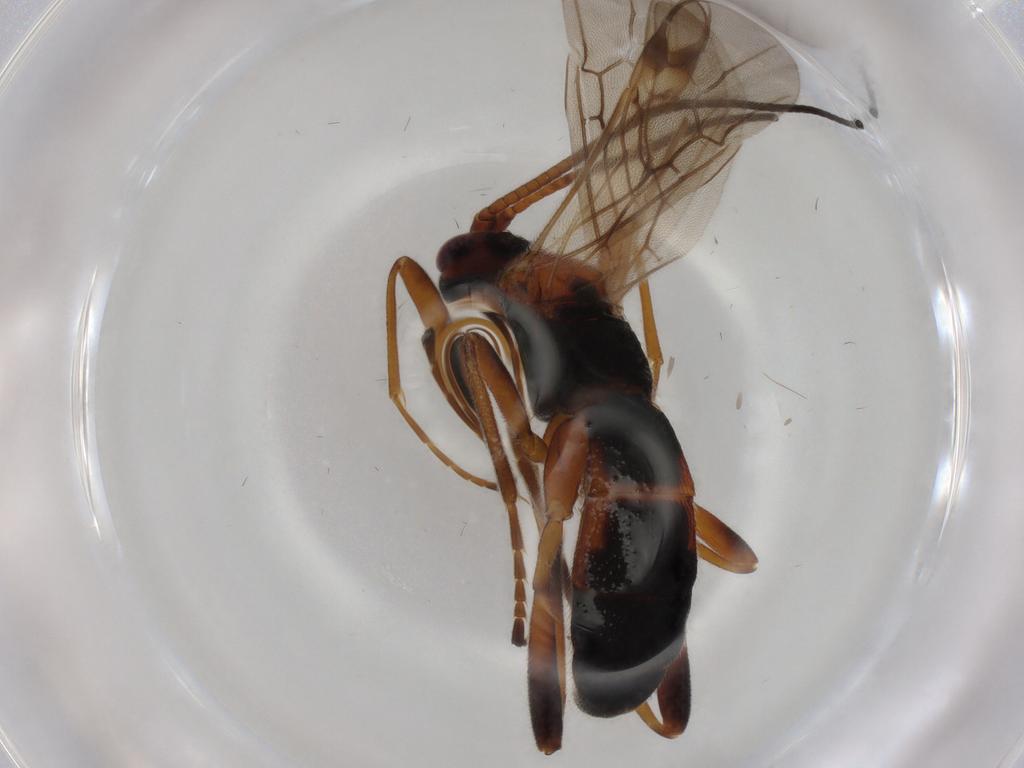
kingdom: Animalia
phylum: Arthropoda
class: Insecta
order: Hymenoptera
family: Braconidae
